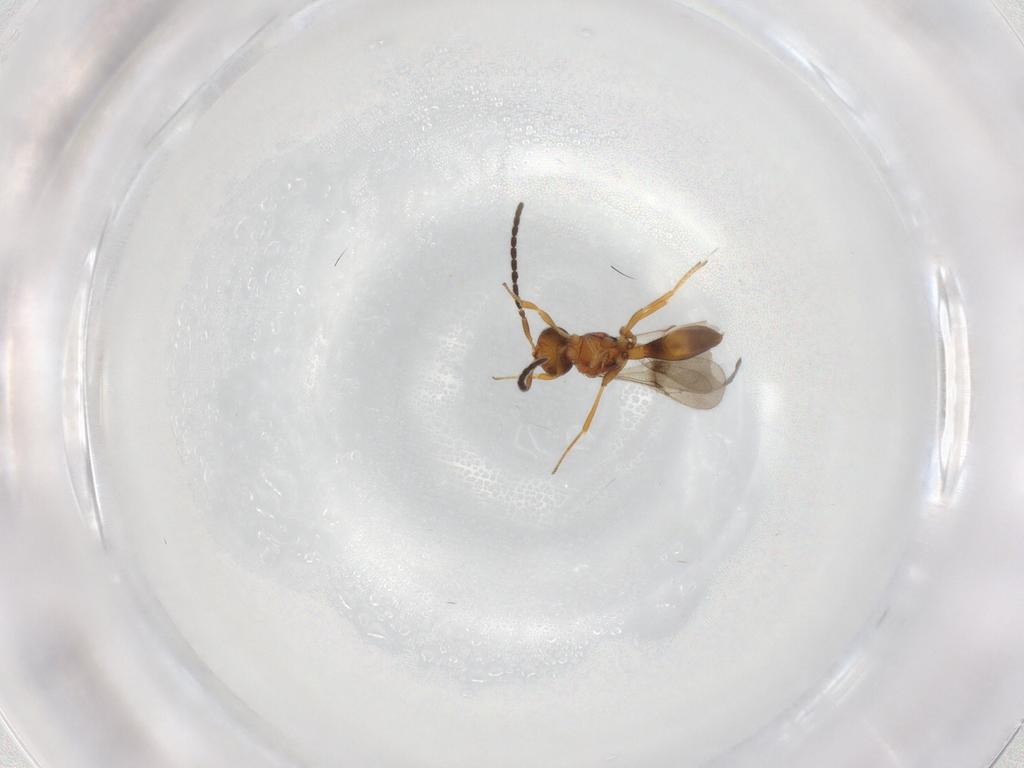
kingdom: Animalia
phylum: Arthropoda
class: Insecta
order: Hymenoptera
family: Scelionidae
